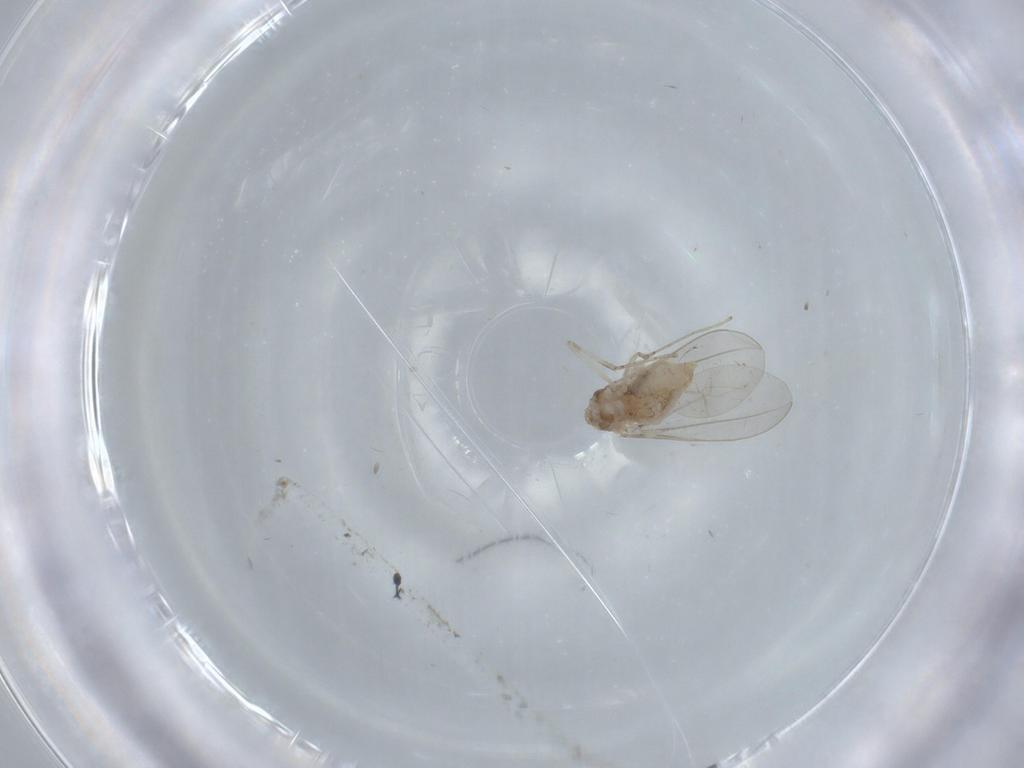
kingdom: Animalia
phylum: Arthropoda
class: Insecta
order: Diptera
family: Cecidomyiidae
